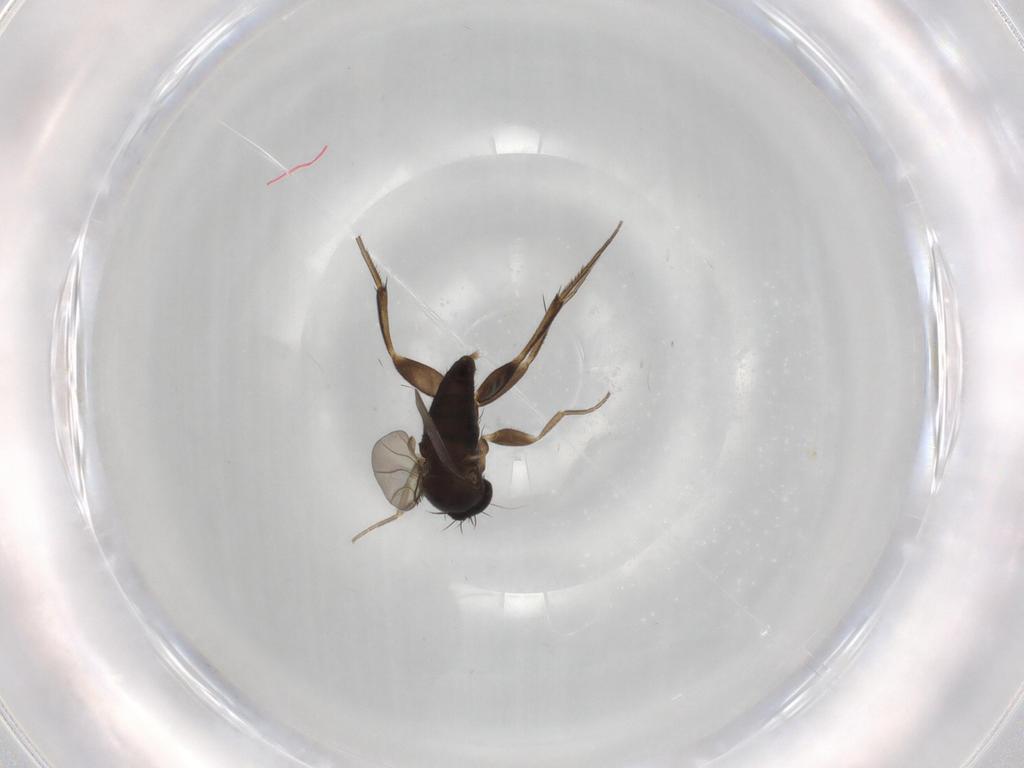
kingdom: Animalia
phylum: Arthropoda
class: Insecta
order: Diptera
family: Phoridae
